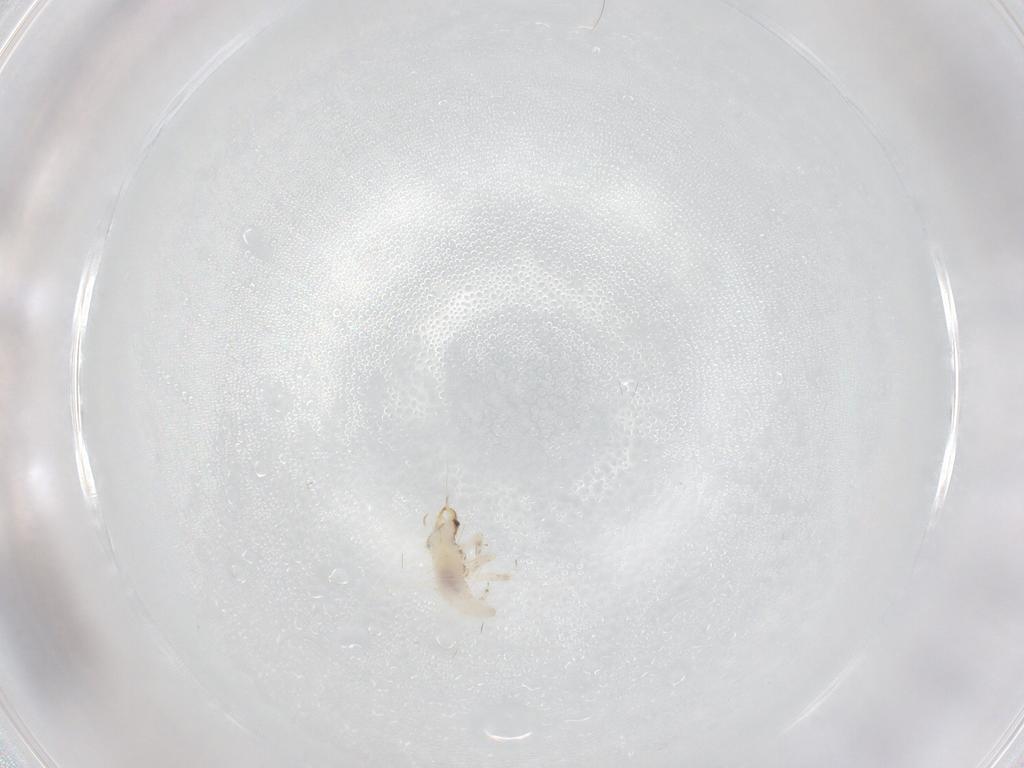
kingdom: Animalia
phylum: Arthropoda
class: Insecta
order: Neuroptera
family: Chrysopidae
